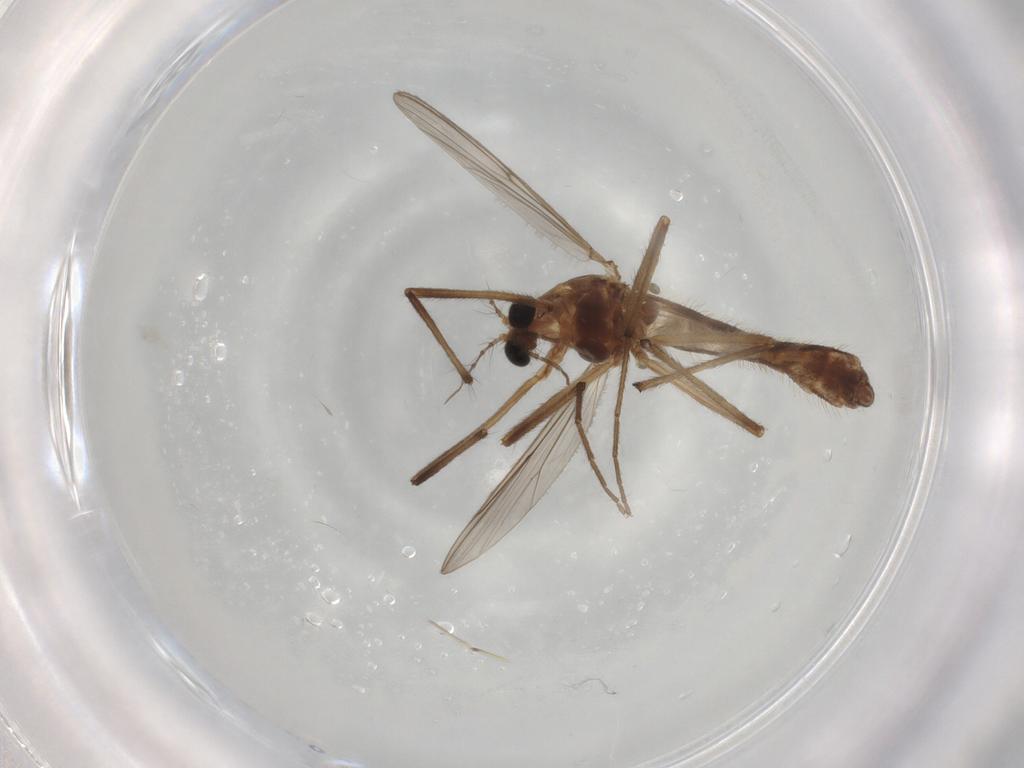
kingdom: Animalia
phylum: Arthropoda
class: Insecta
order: Diptera
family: Chironomidae
